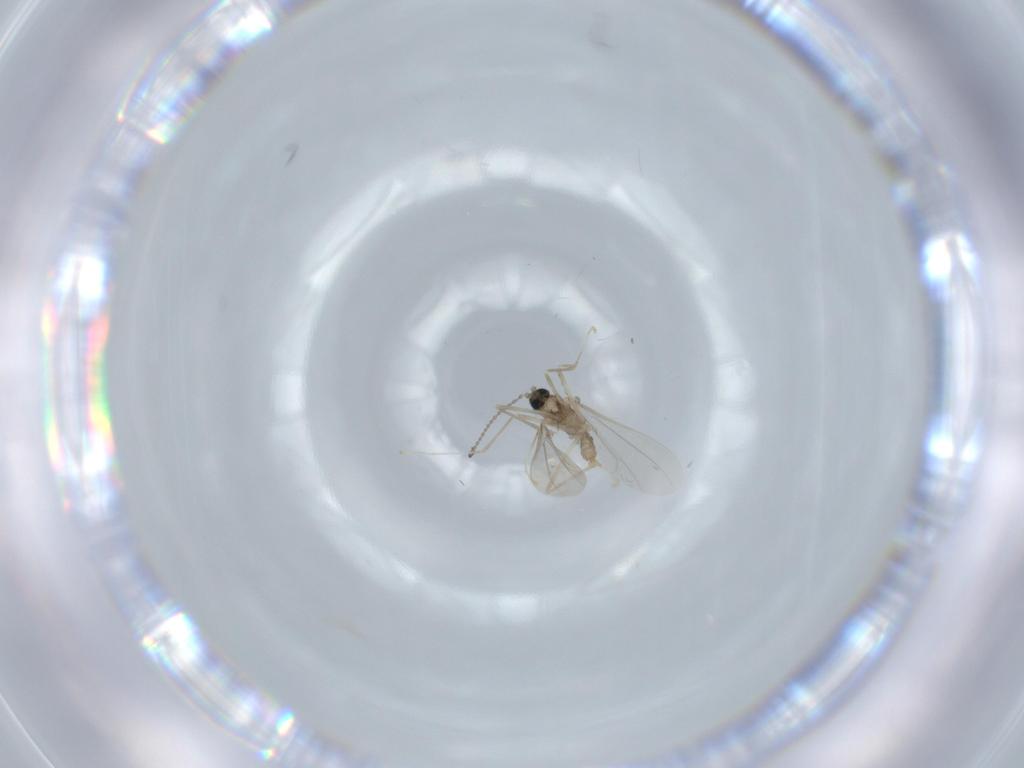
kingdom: Animalia
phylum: Arthropoda
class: Insecta
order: Diptera
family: Cecidomyiidae
